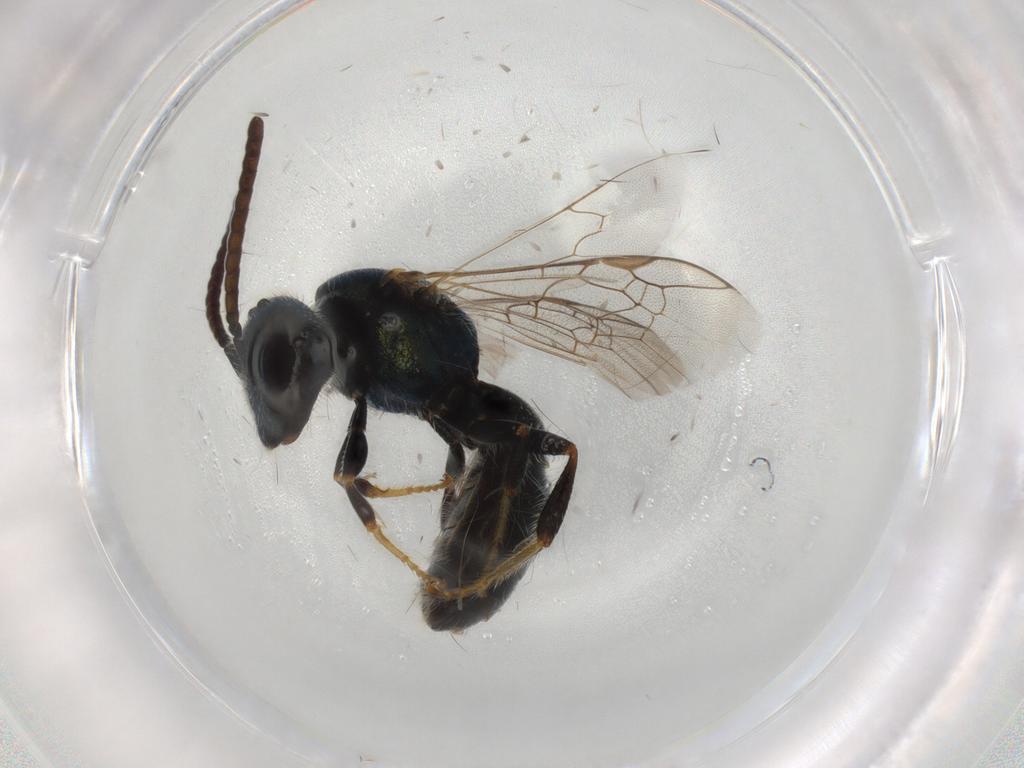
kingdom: Animalia
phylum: Arthropoda
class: Insecta
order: Hymenoptera
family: Halictidae
